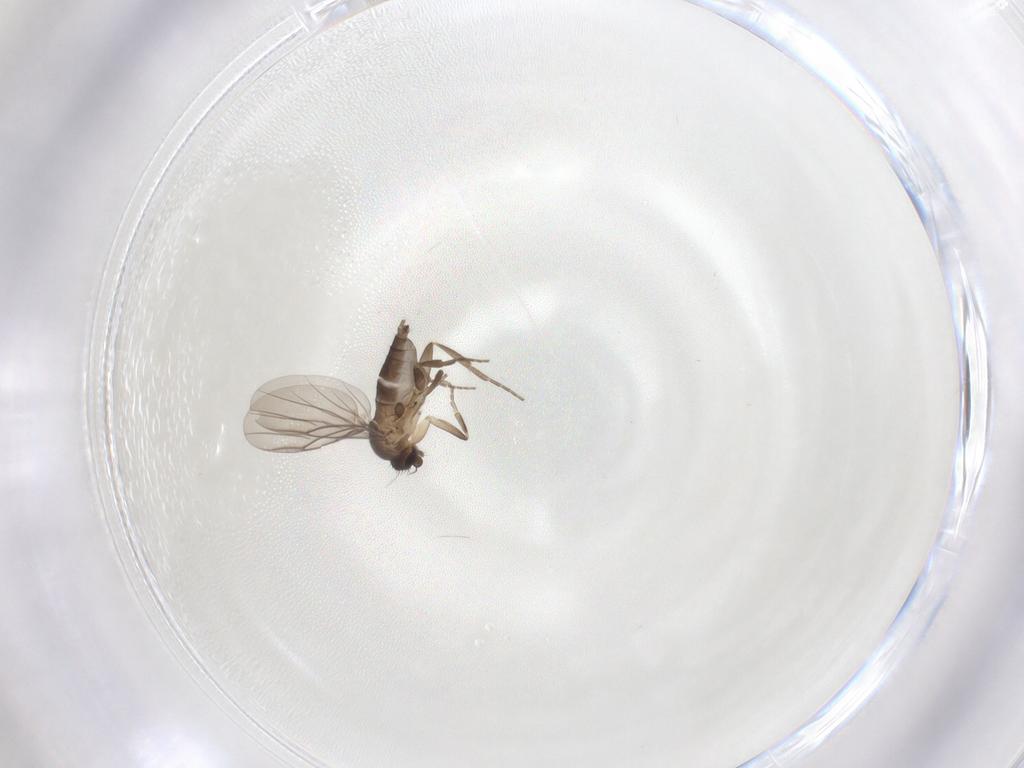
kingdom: Animalia
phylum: Arthropoda
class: Insecta
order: Diptera
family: Phoridae
